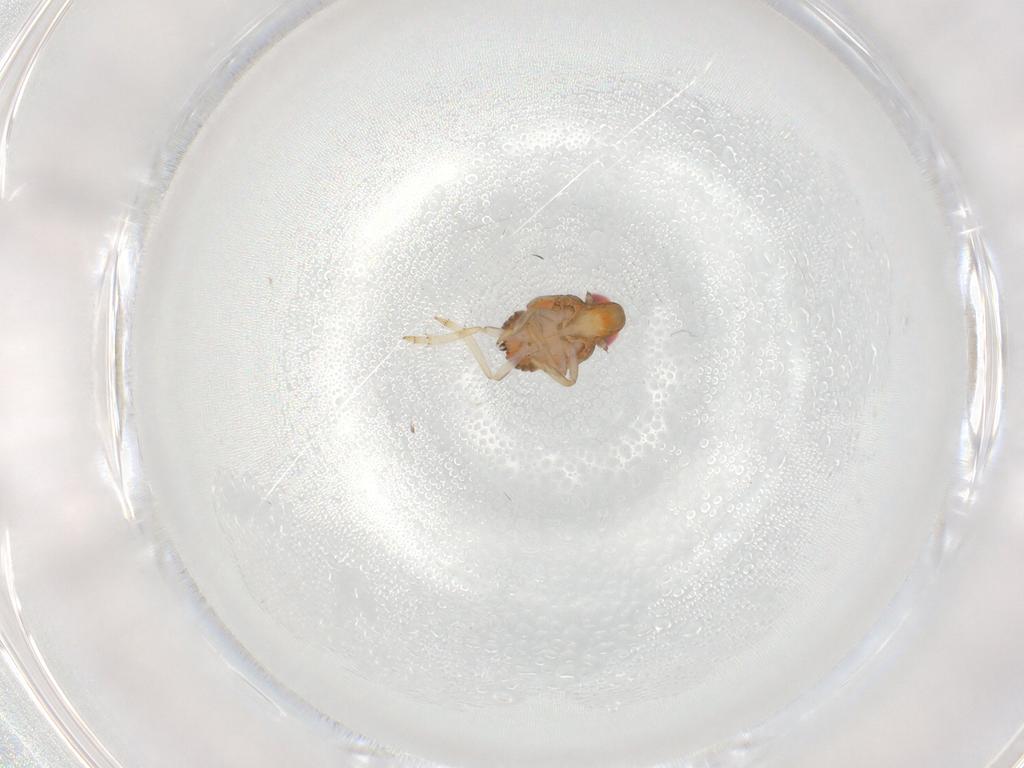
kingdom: Animalia
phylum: Arthropoda
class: Insecta
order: Hemiptera
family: Issidae
